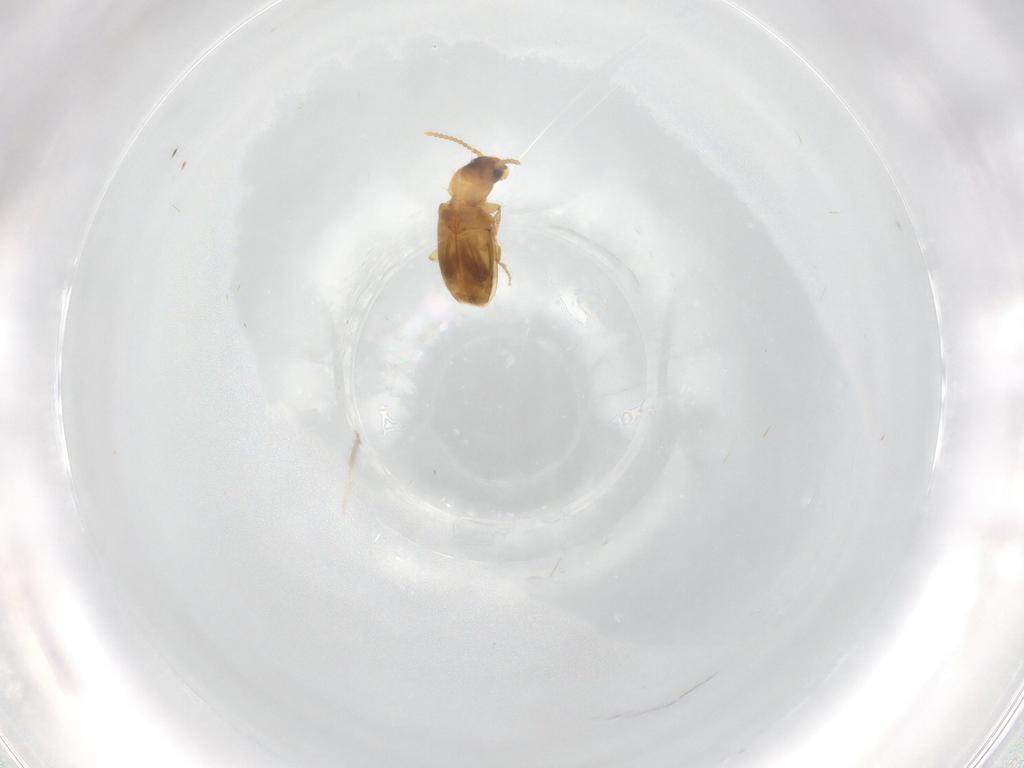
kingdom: Animalia
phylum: Arthropoda
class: Insecta
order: Coleoptera
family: Carabidae
